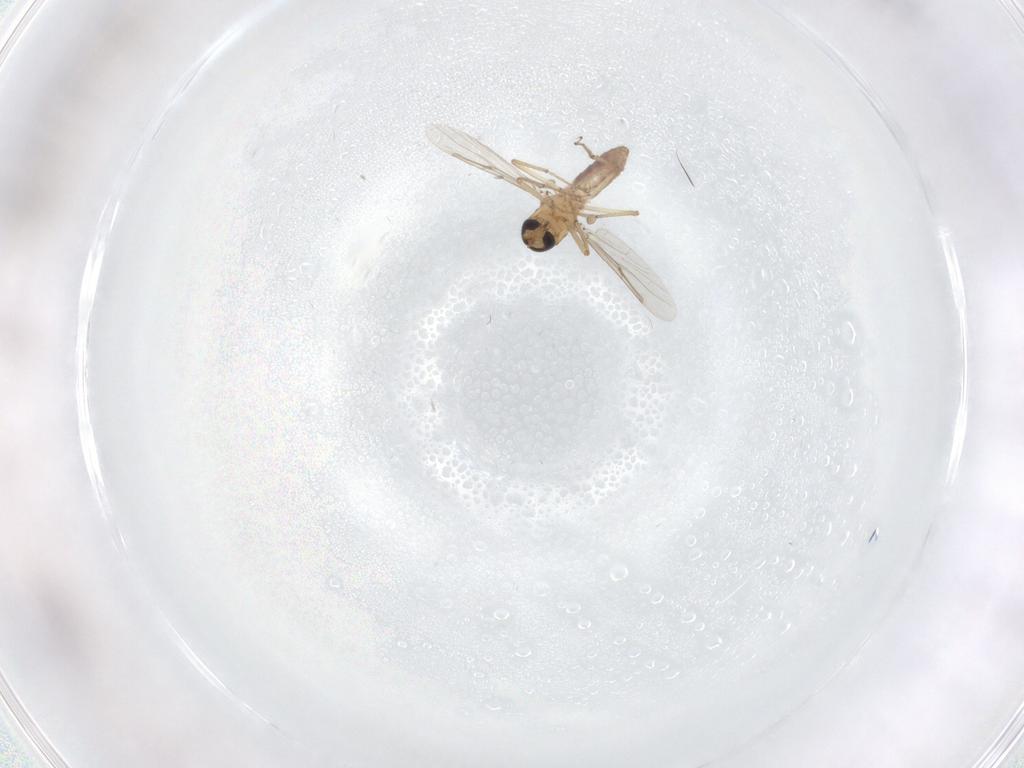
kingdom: Animalia
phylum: Arthropoda
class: Insecta
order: Diptera
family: Ceratopogonidae
